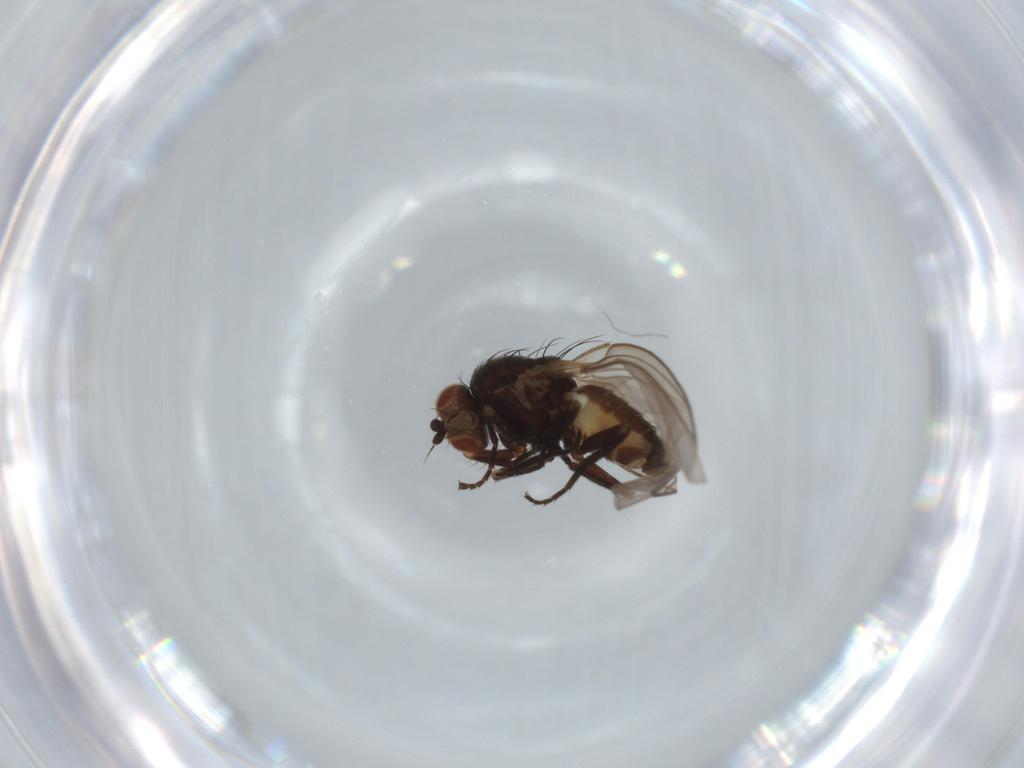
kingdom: Animalia
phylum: Arthropoda
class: Insecta
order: Diptera
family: Agromyzidae
